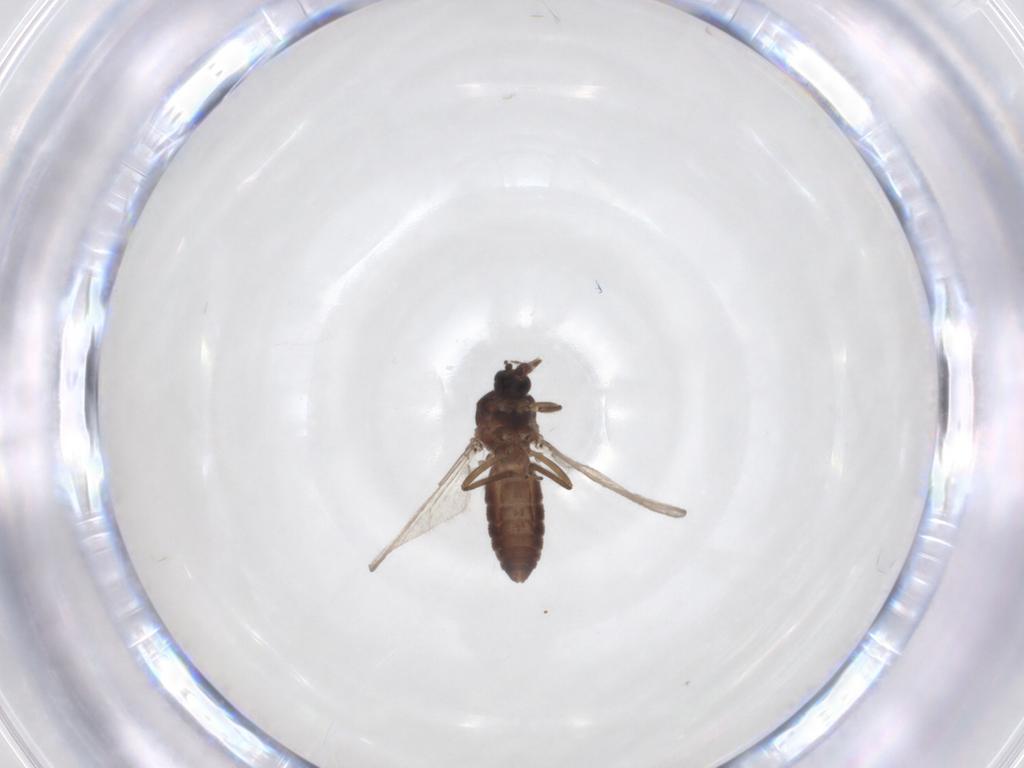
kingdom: Animalia
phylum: Arthropoda
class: Insecta
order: Diptera
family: Ceratopogonidae
